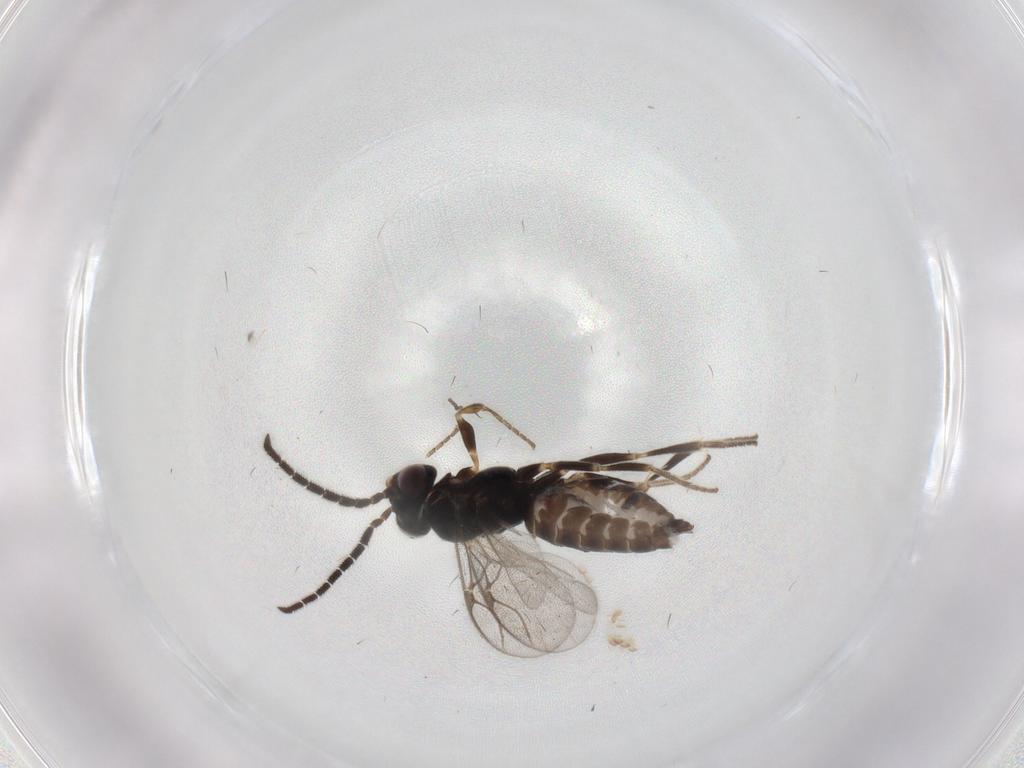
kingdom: Animalia
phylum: Arthropoda
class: Insecta
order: Hymenoptera
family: Dryinidae
